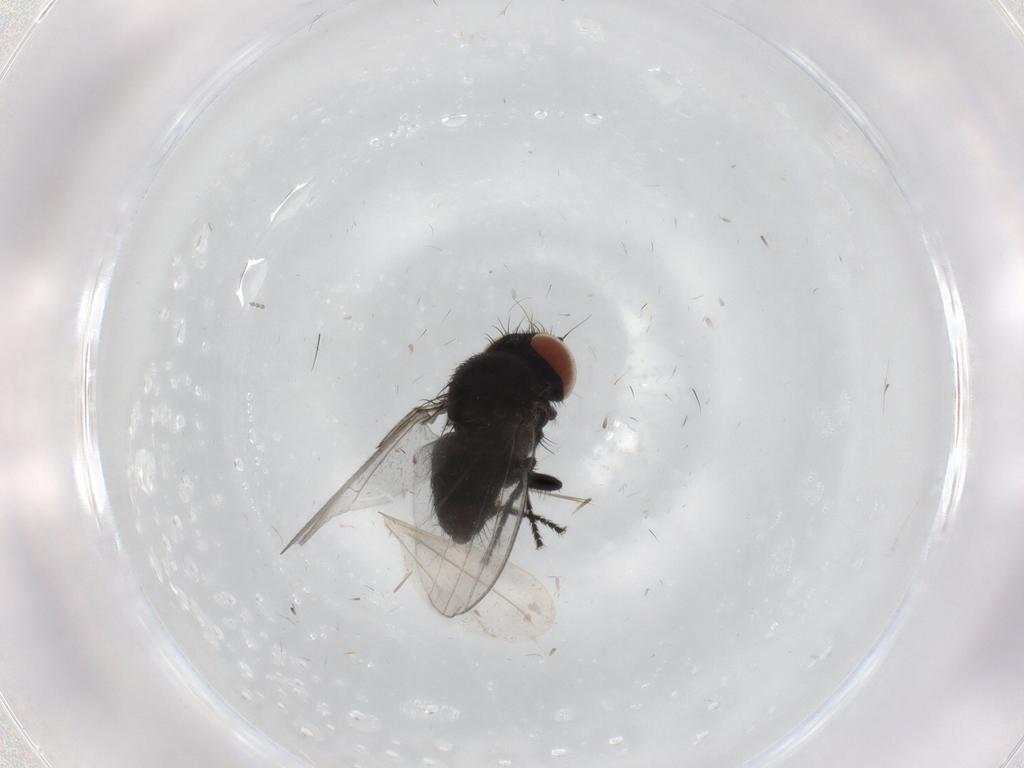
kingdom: Animalia
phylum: Arthropoda
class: Insecta
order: Diptera
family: Milichiidae
